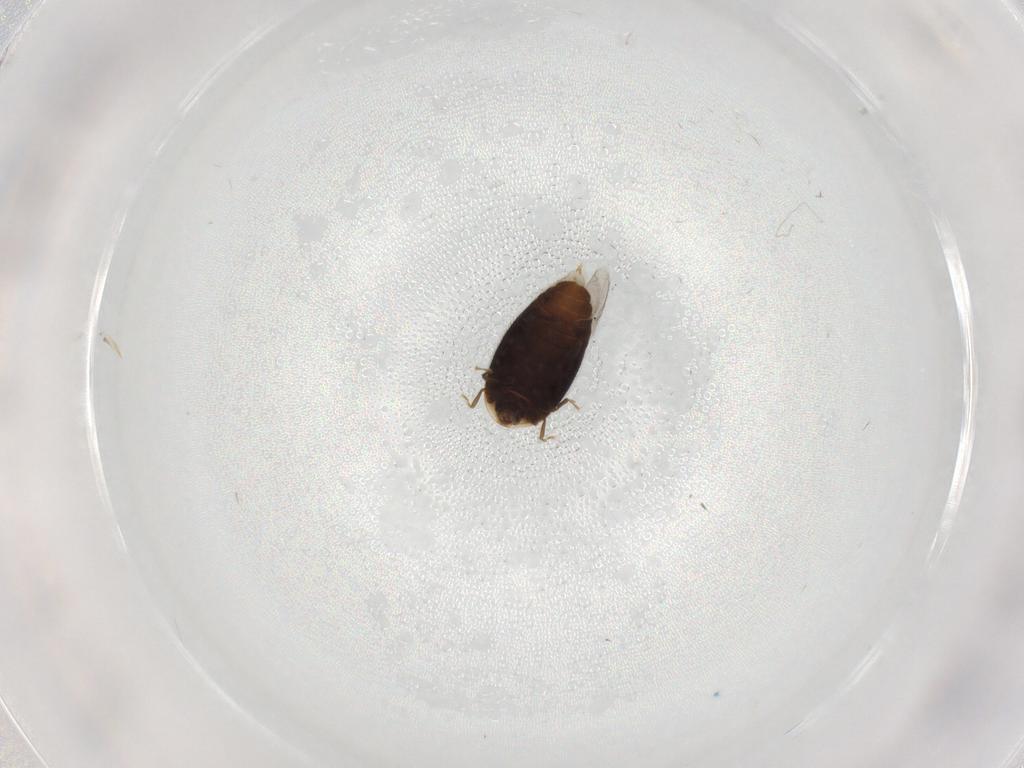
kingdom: Animalia
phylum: Arthropoda
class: Insecta
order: Coleoptera
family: Corylophidae
